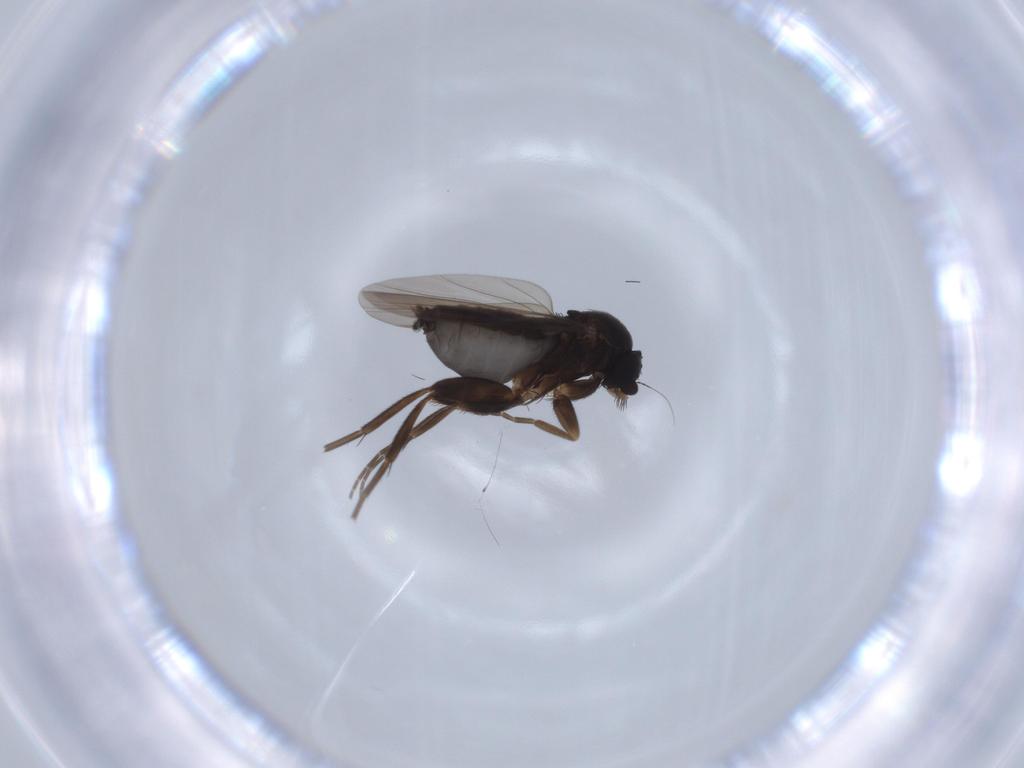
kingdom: Animalia
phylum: Arthropoda
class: Insecta
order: Diptera
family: Phoridae
